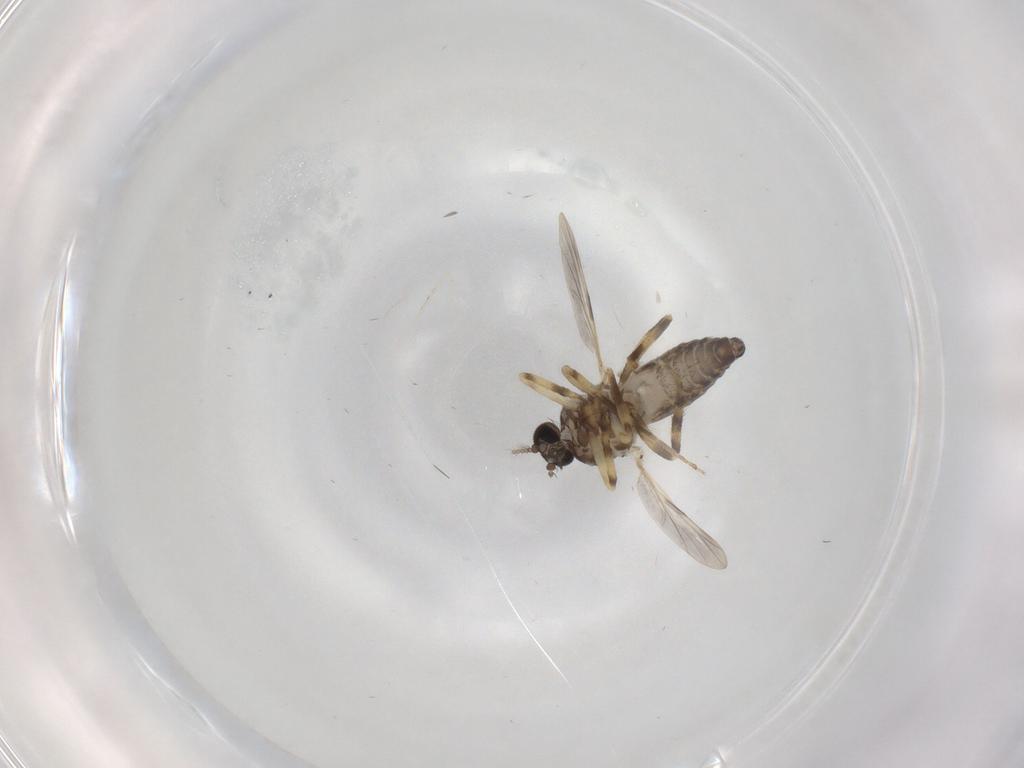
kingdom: Animalia
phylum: Arthropoda
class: Insecta
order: Diptera
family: Ceratopogonidae
